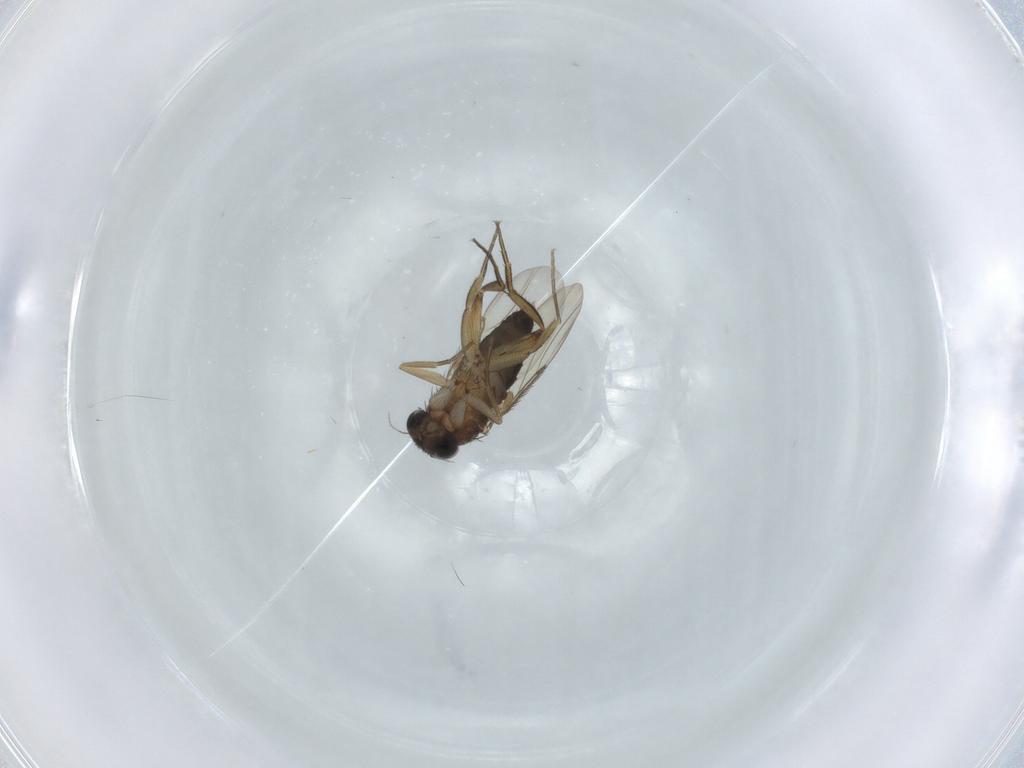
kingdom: Animalia
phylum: Arthropoda
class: Insecta
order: Diptera
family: Phoridae
